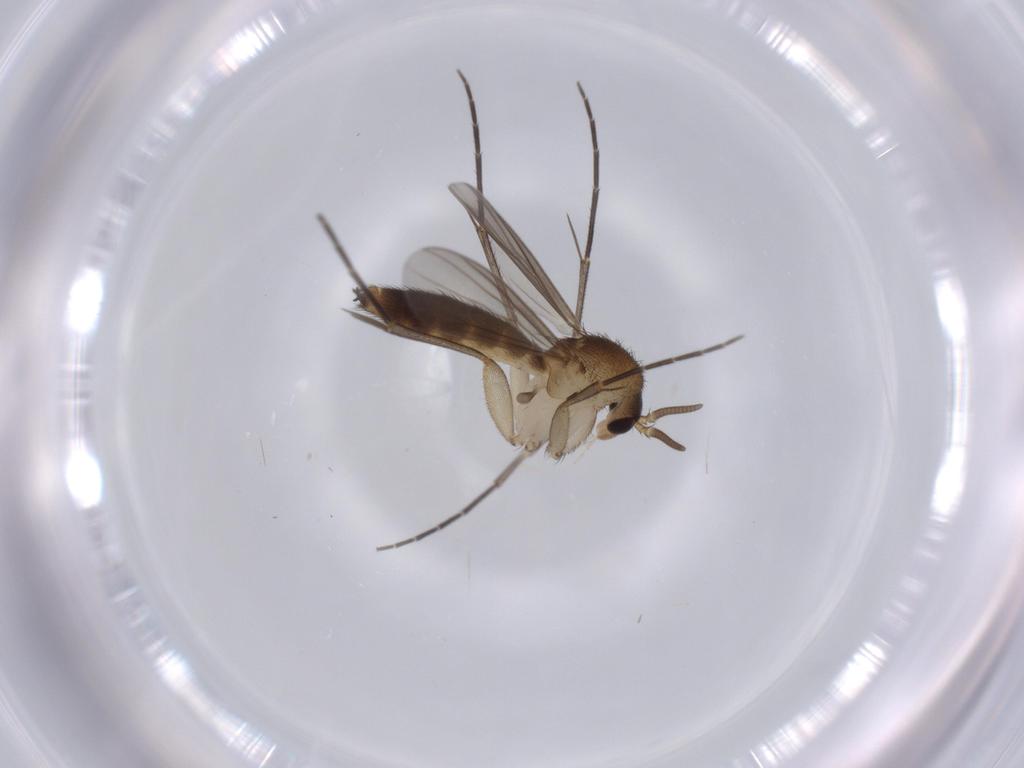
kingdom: Animalia
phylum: Arthropoda
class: Insecta
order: Diptera
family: Mycetophilidae
